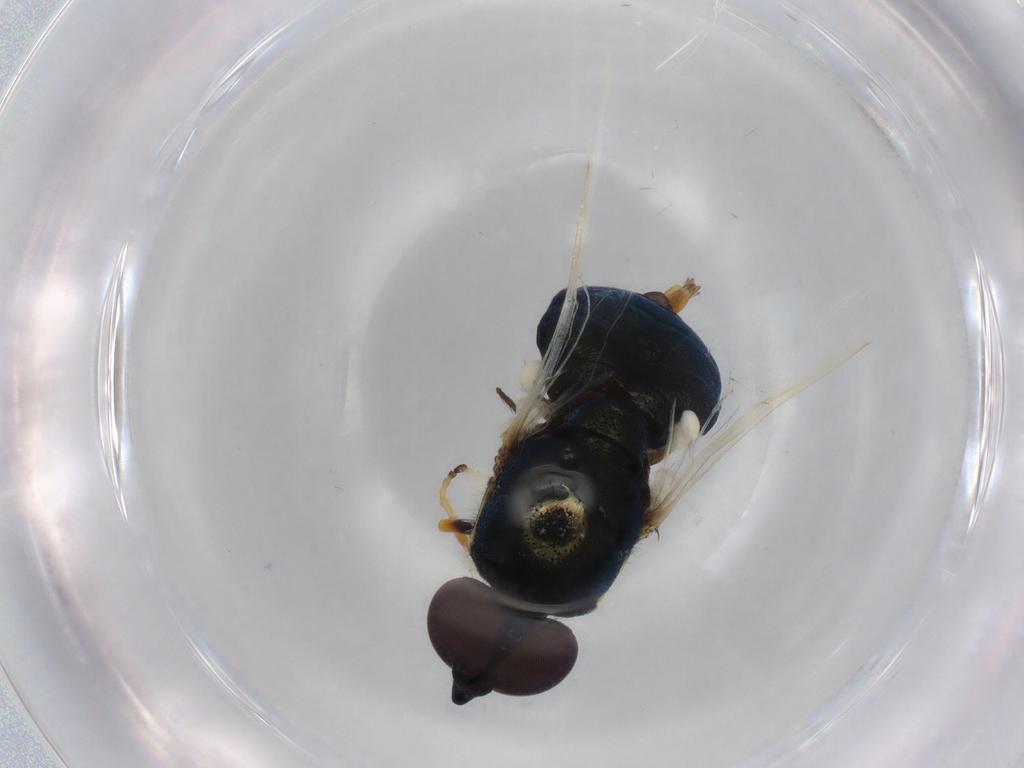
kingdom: Animalia
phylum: Arthropoda
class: Insecta
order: Diptera
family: Stratiomyidae
